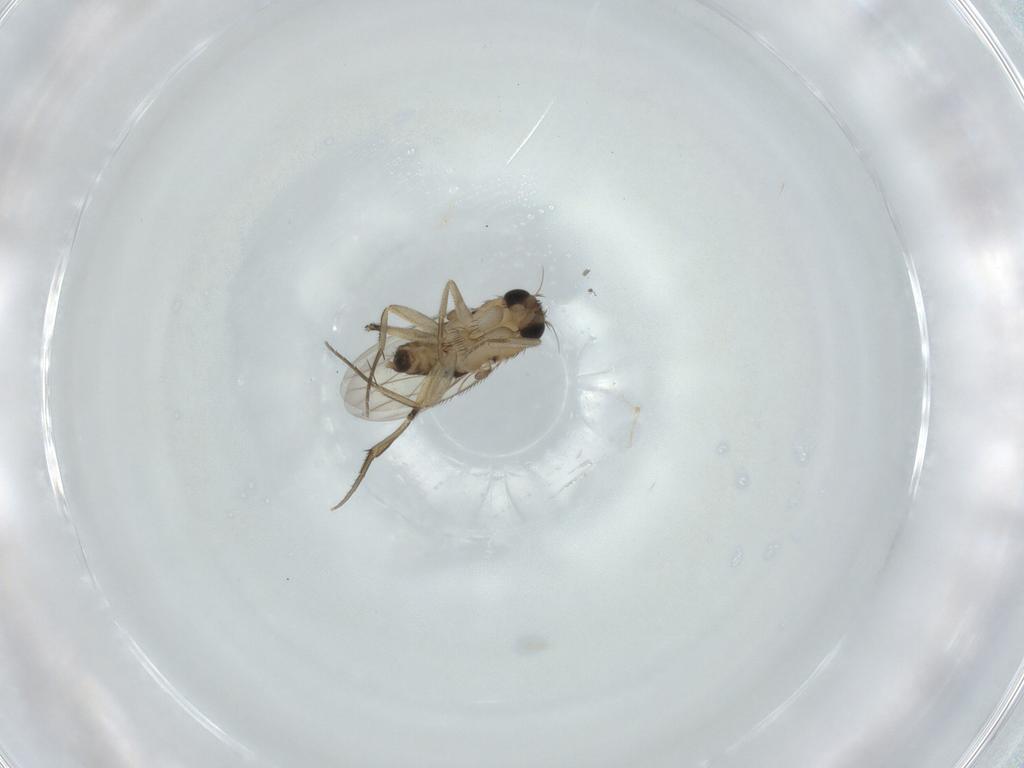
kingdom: Animalia
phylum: Arthropoda
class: Insecta
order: Diptera
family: Phoridae
